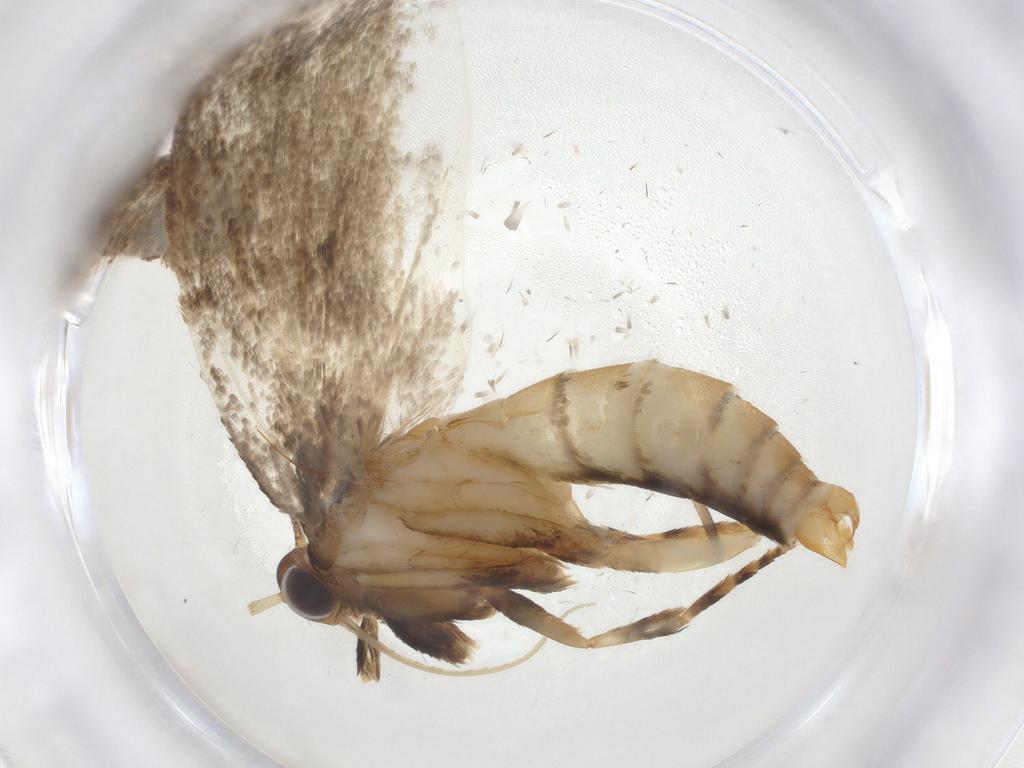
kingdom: Animalia
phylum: Arthropoda
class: Insecta
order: Lepidoptera
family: Oecophoridae
